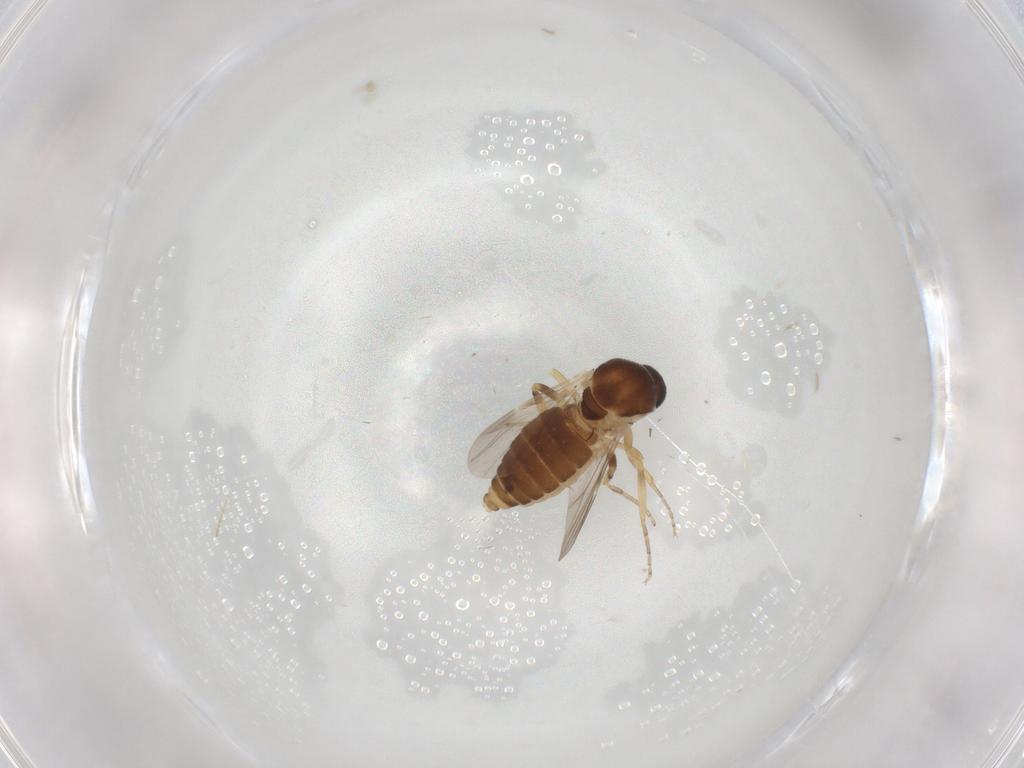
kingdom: Animalia
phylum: Arthropoda
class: Insecta
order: Diptera
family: Ceratopogonidae
